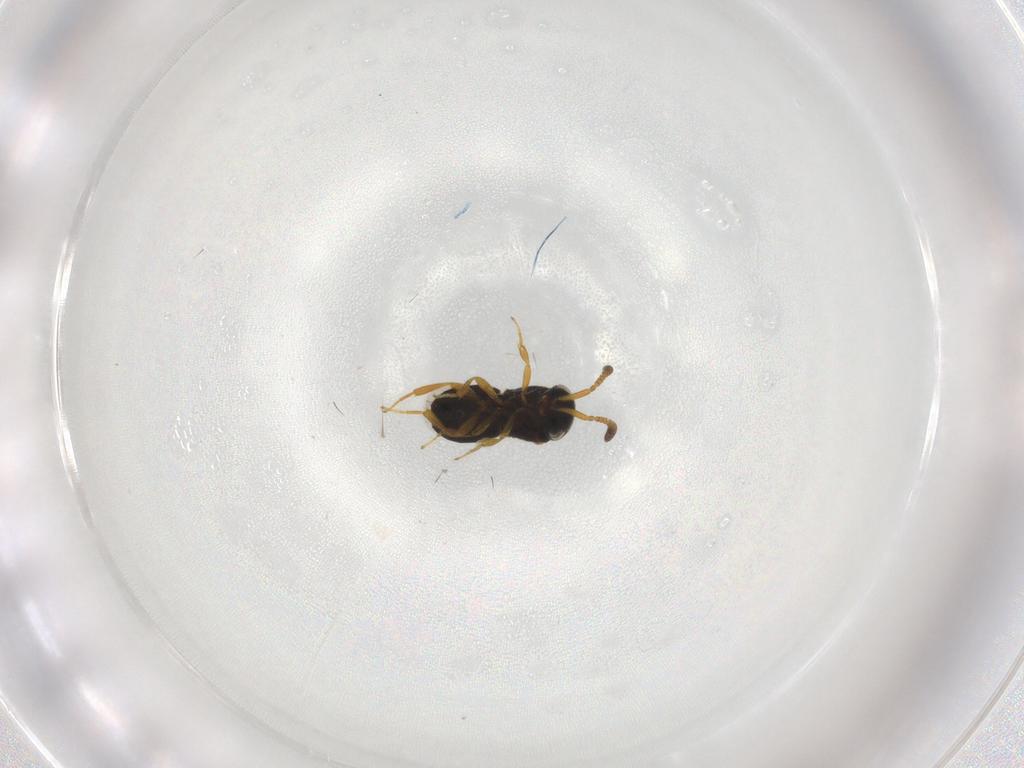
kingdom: Animalia
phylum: Arthropoda
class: Insecta
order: Hymenoptera
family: Scelionidae
